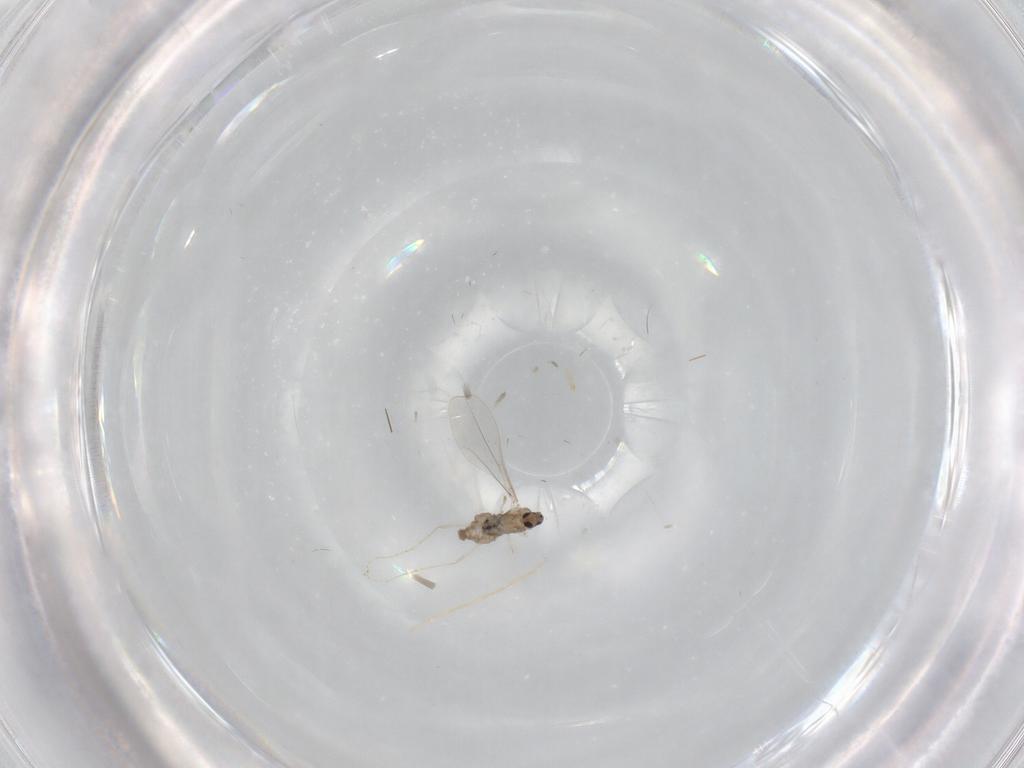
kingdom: Animalia
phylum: Arthropoda
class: Insecta
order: Diptera
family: Cecidomyiidae
